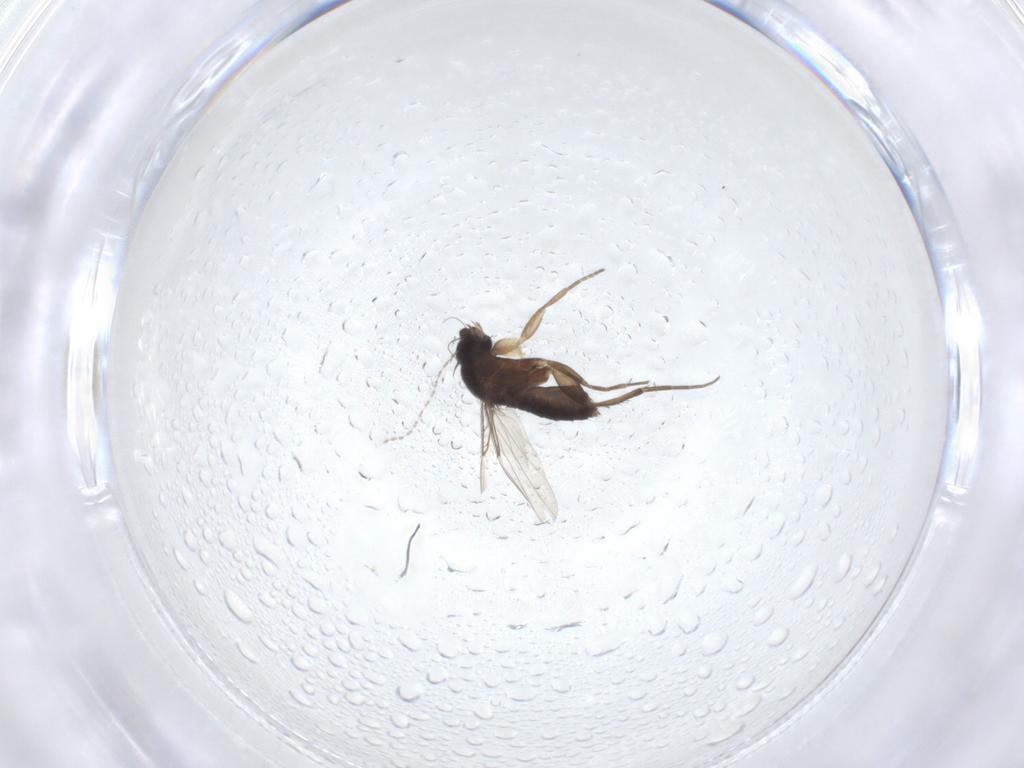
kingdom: Animalia
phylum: Arthropoda
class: Insecta
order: Diptera
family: Phoridae
